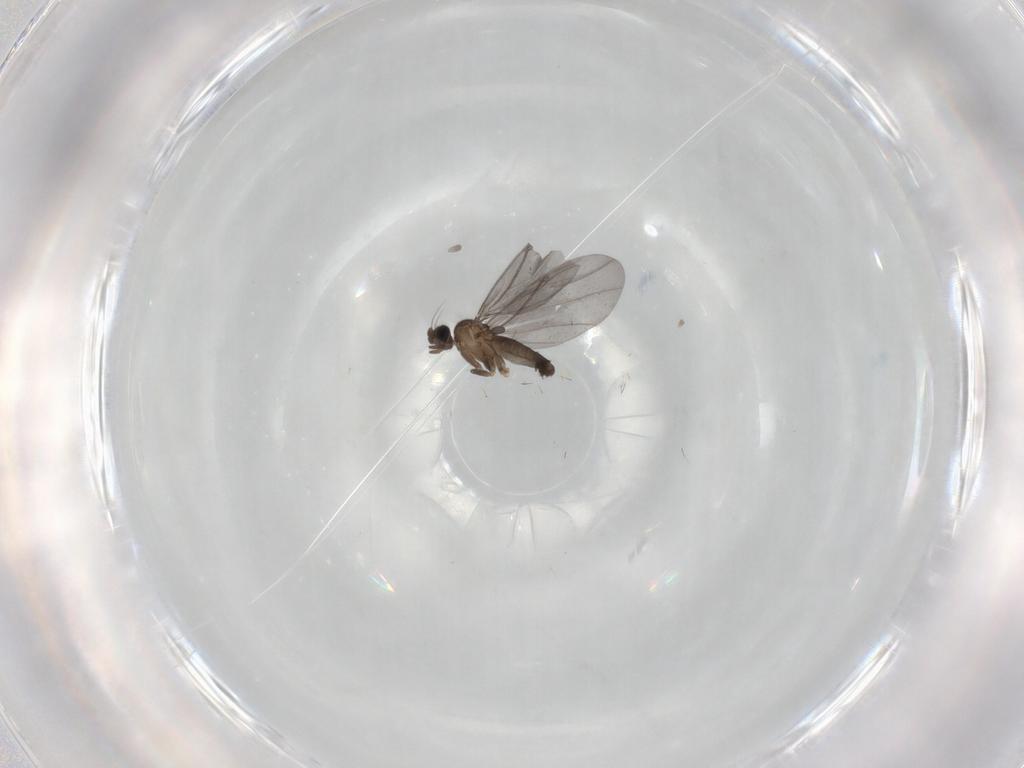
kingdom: Animalia
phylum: Arthropoda
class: Insecta
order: Diptera
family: Phoridae
